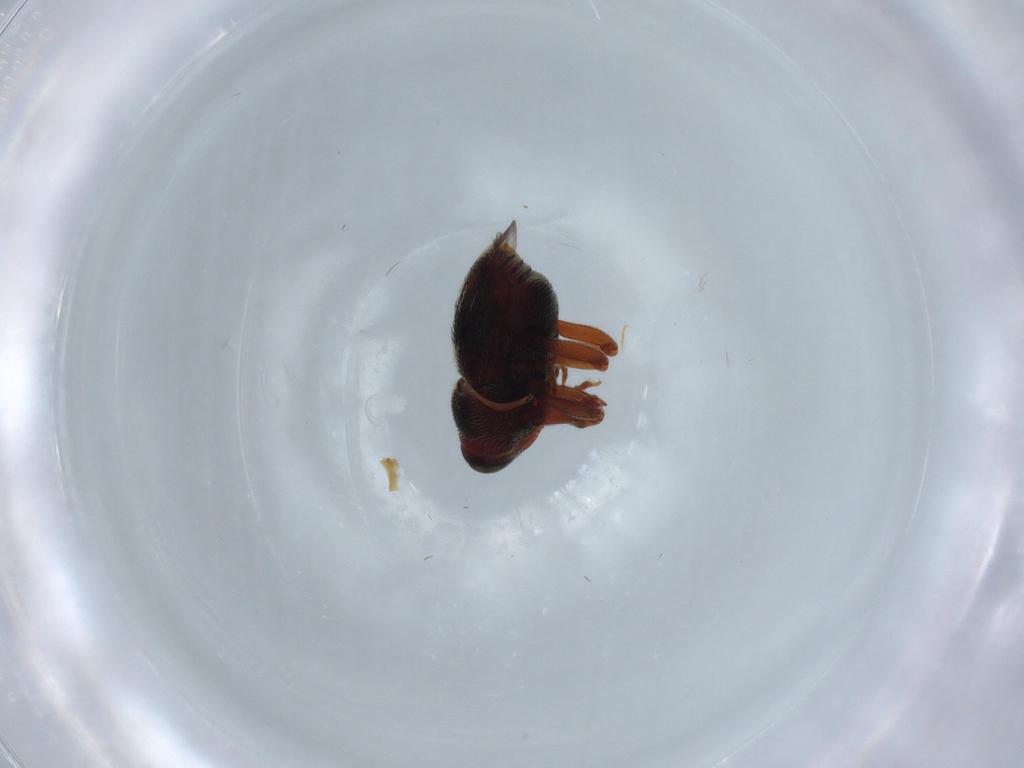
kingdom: Animalia
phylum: Arthropoda
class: Insecta
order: Coleoptera
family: Curculionidae
